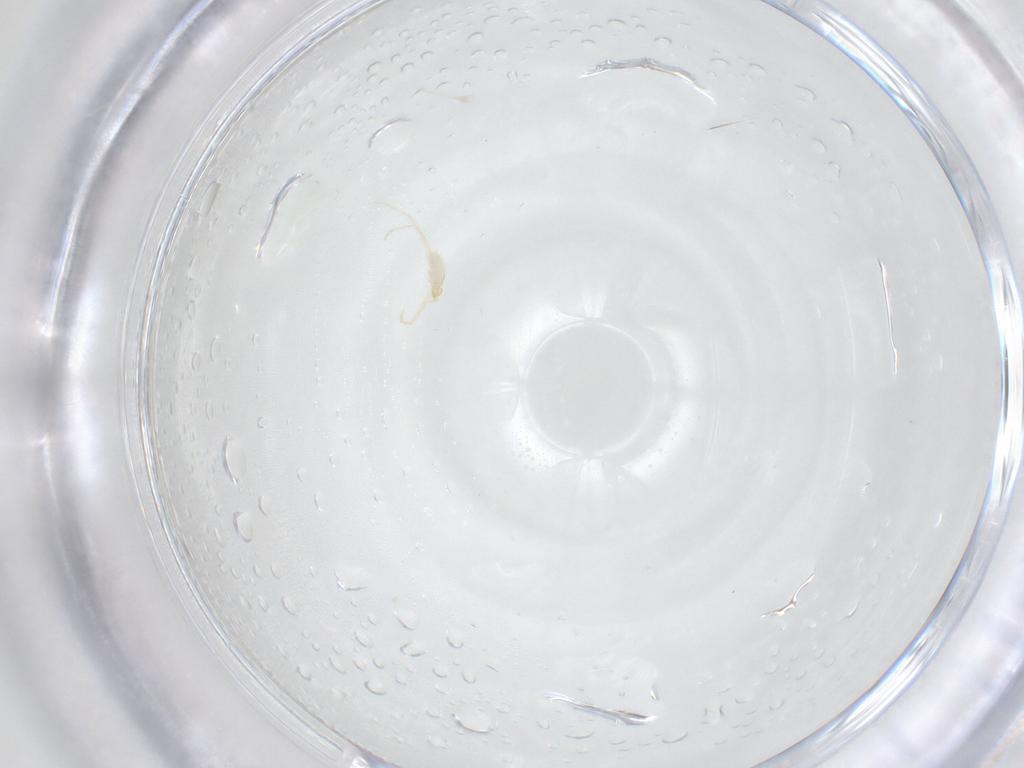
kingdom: Animalia
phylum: Arthropoda
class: Arachnida
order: Trombidiformes
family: Erythraeidae
